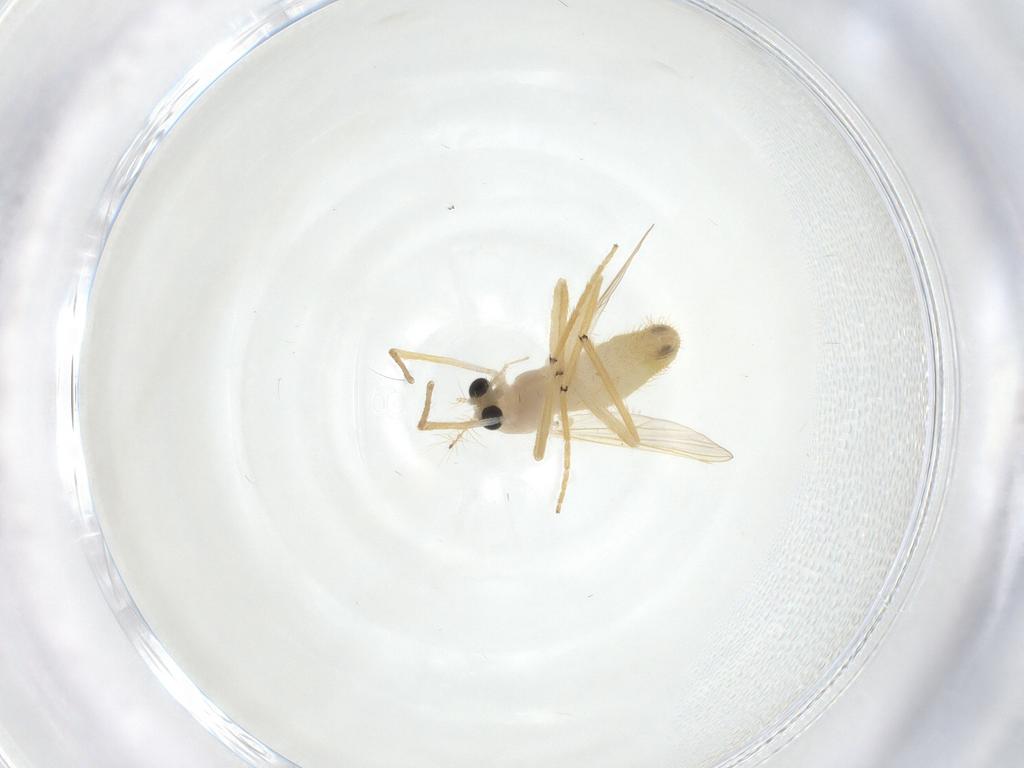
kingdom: Animalia
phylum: Arthropoda
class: Insecta
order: Diptera
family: Chironomidae
